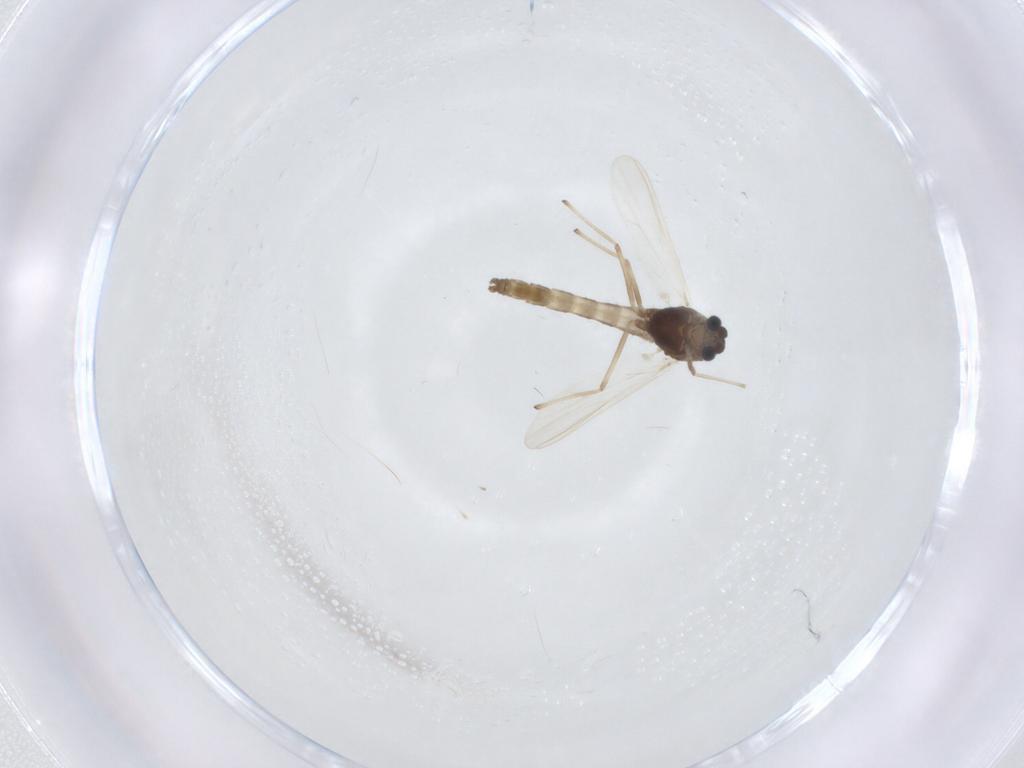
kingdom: Animalia
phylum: Arthropoda
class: Insecta
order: Diptera
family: Chironomidae
